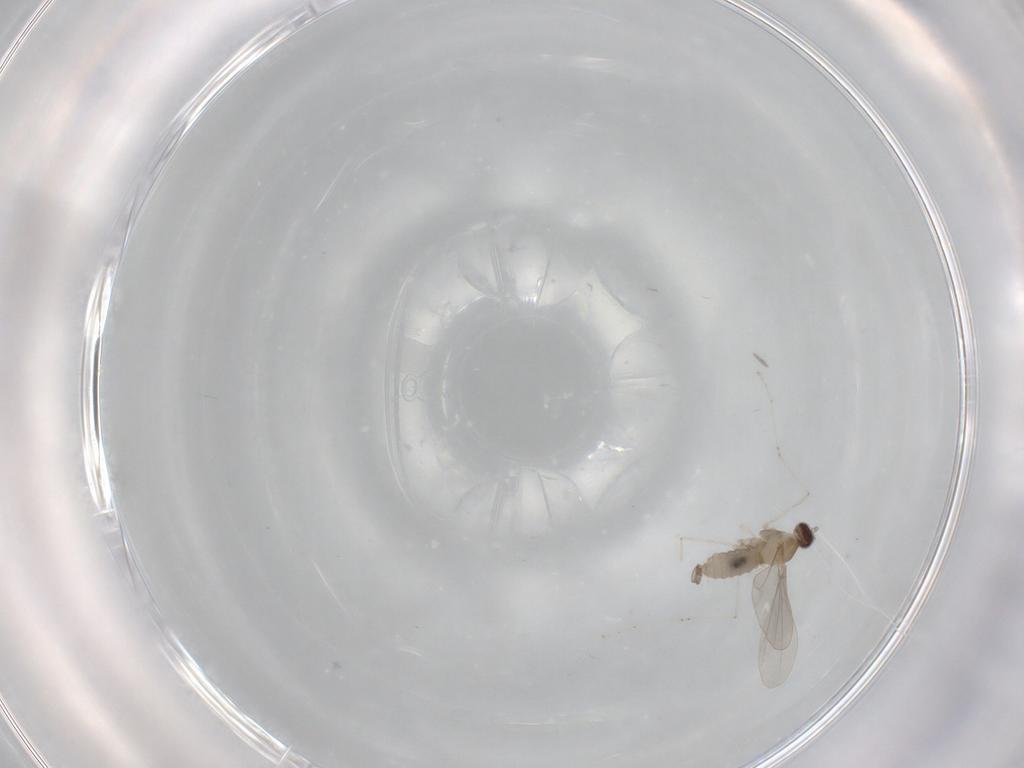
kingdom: Animalia
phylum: Arthropoda
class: Insecta
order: Diptera
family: Cecidomyiidae
